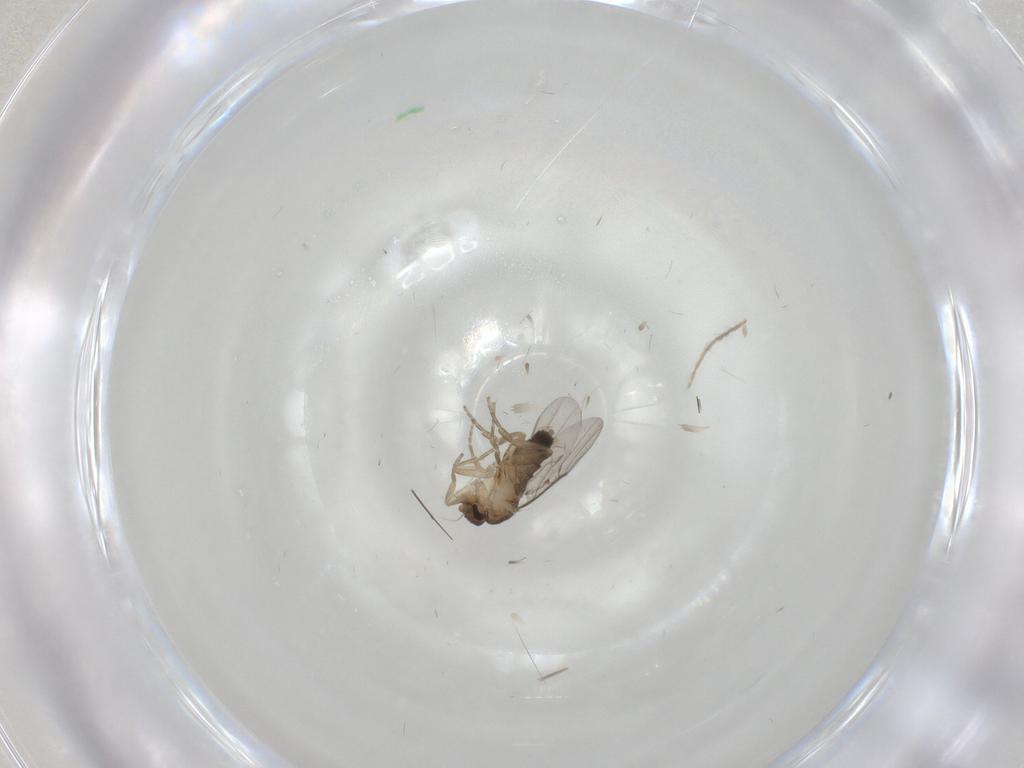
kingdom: Animalia
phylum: Arthropoda
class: Insecta
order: Diptera
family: Phoridae
